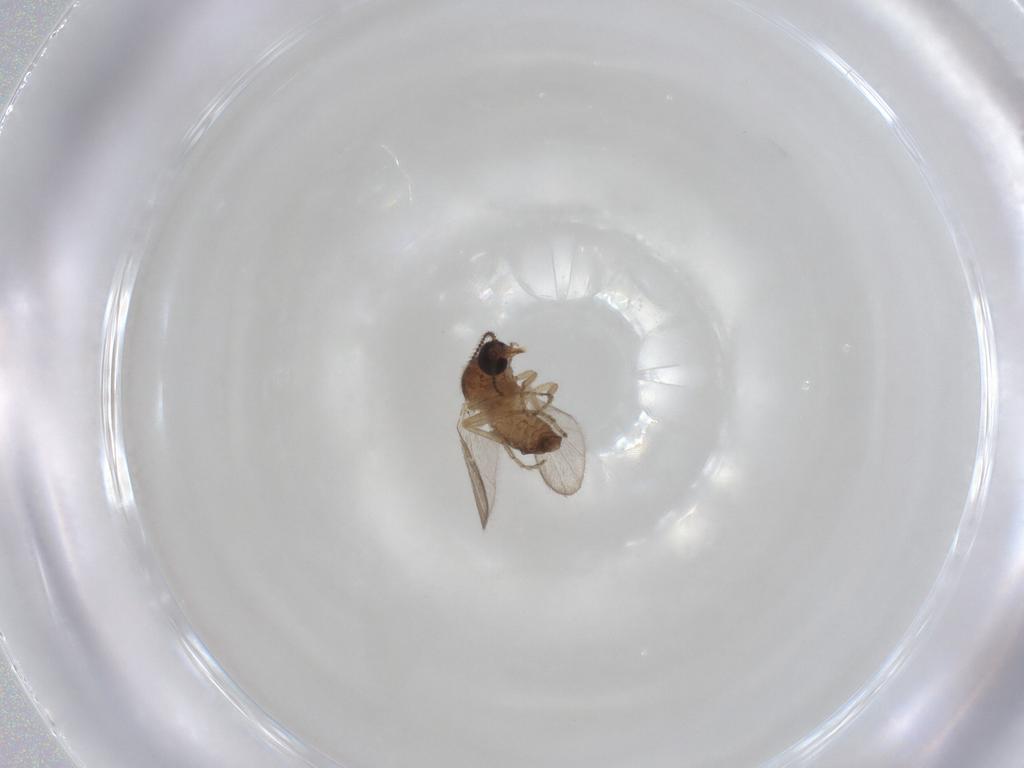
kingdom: Animalia
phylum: Arthropoda
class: Insecta
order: Diptera
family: Ceratopogonidae
